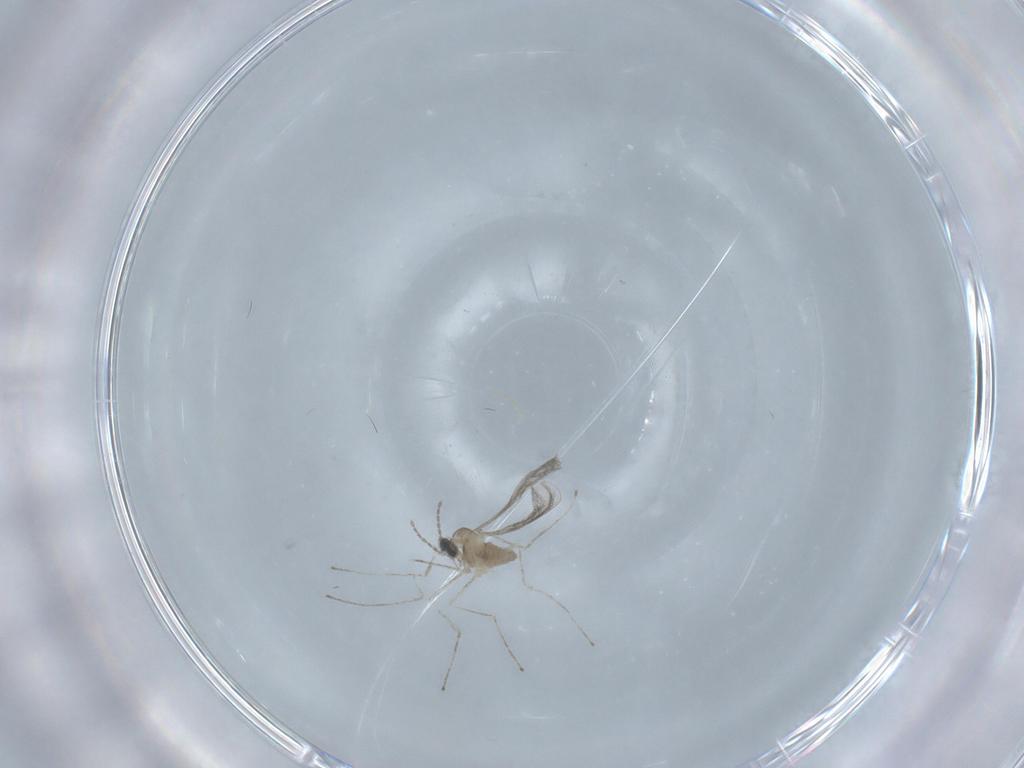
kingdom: Animalia
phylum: Arthropoda
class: Insecta
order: Diptera
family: Cecidomyiidae
